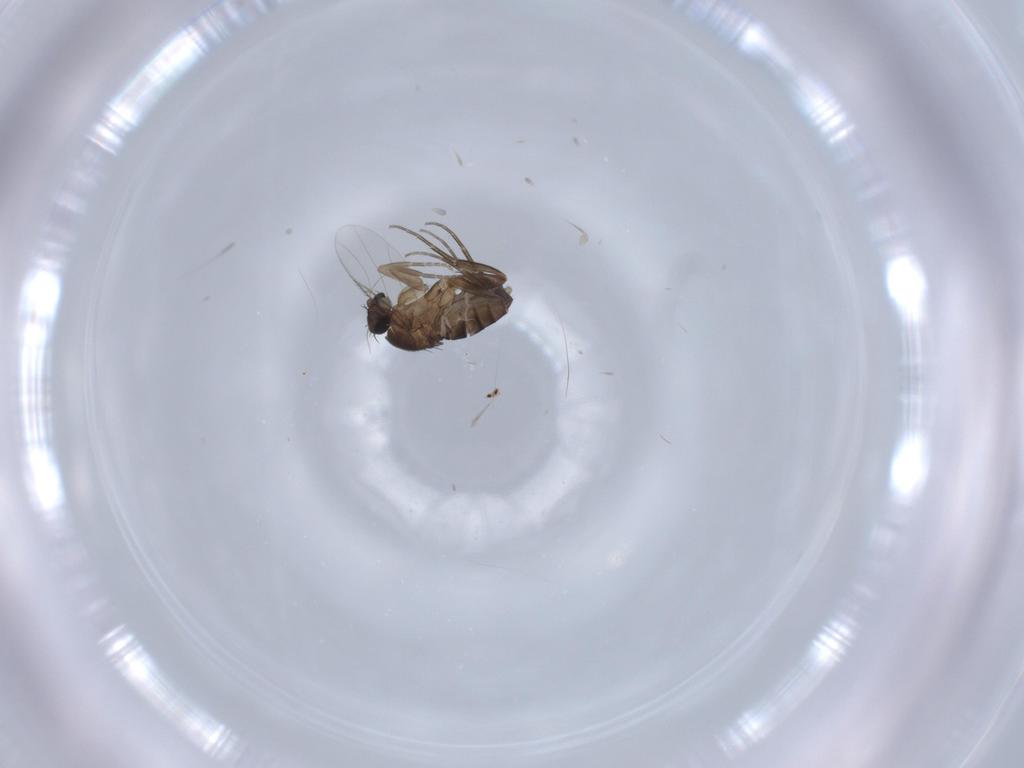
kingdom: Animalia
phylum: Arthropoda
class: Insecta
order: Diptera
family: Phoridae
